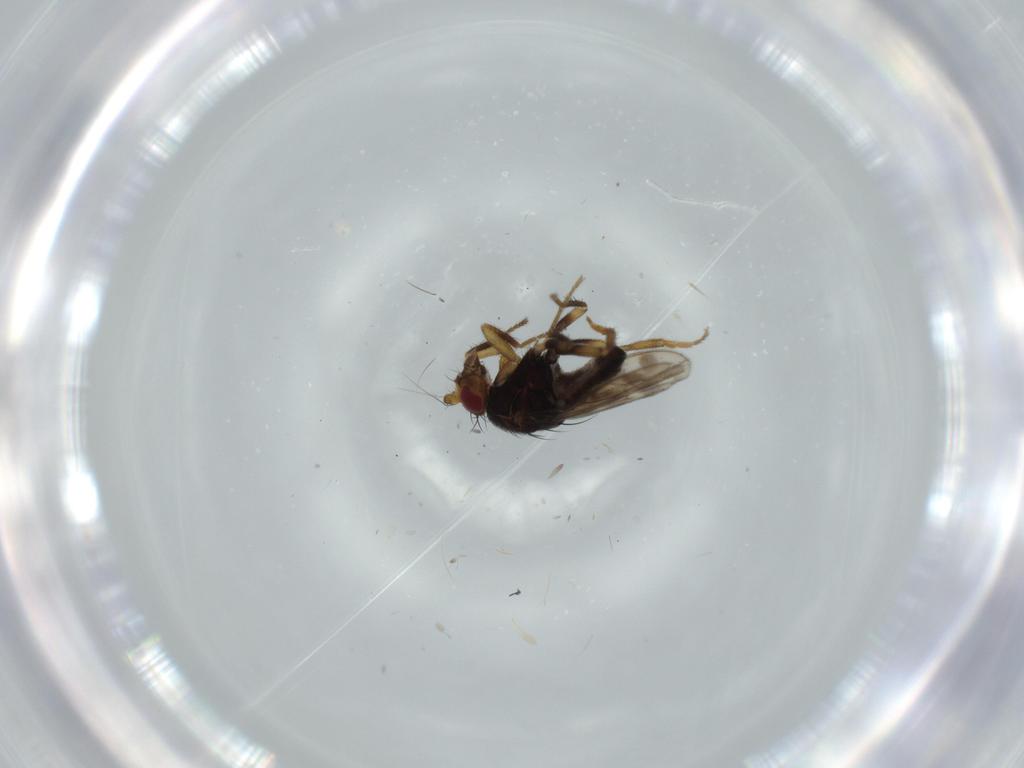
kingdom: Animalia
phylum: Arthropoda
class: Insecta
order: Diptera
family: Sphaeroceridae
